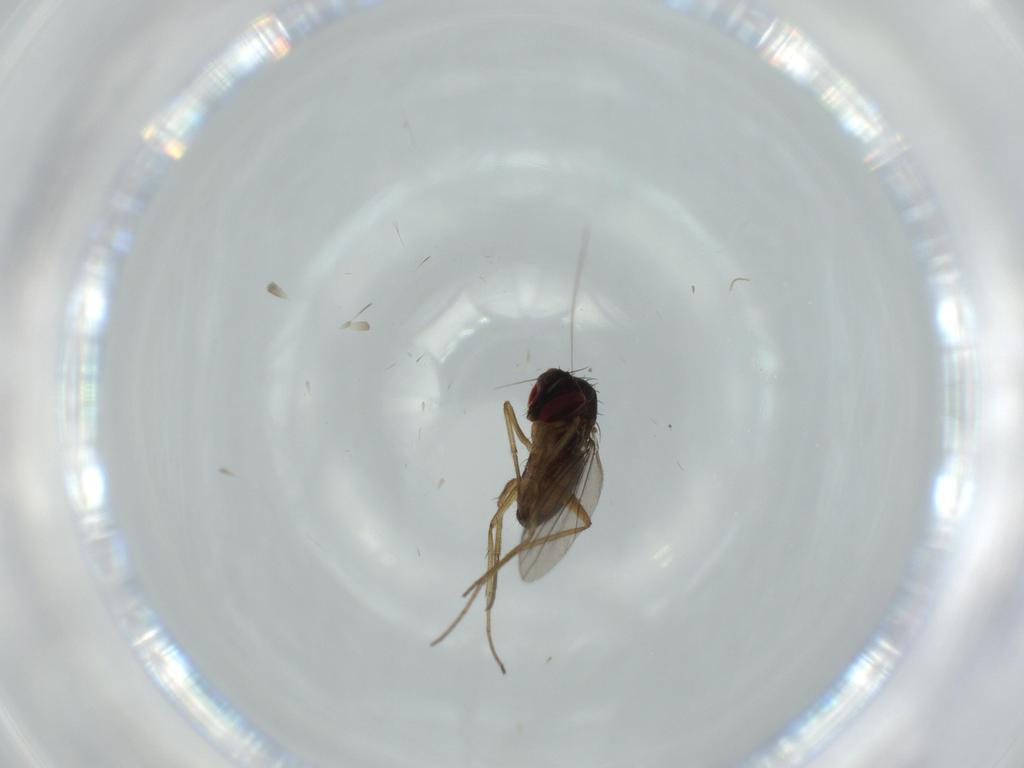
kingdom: Animalia
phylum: Arthropoda
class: Insecta
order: Diptera
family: Dolichopodidae
